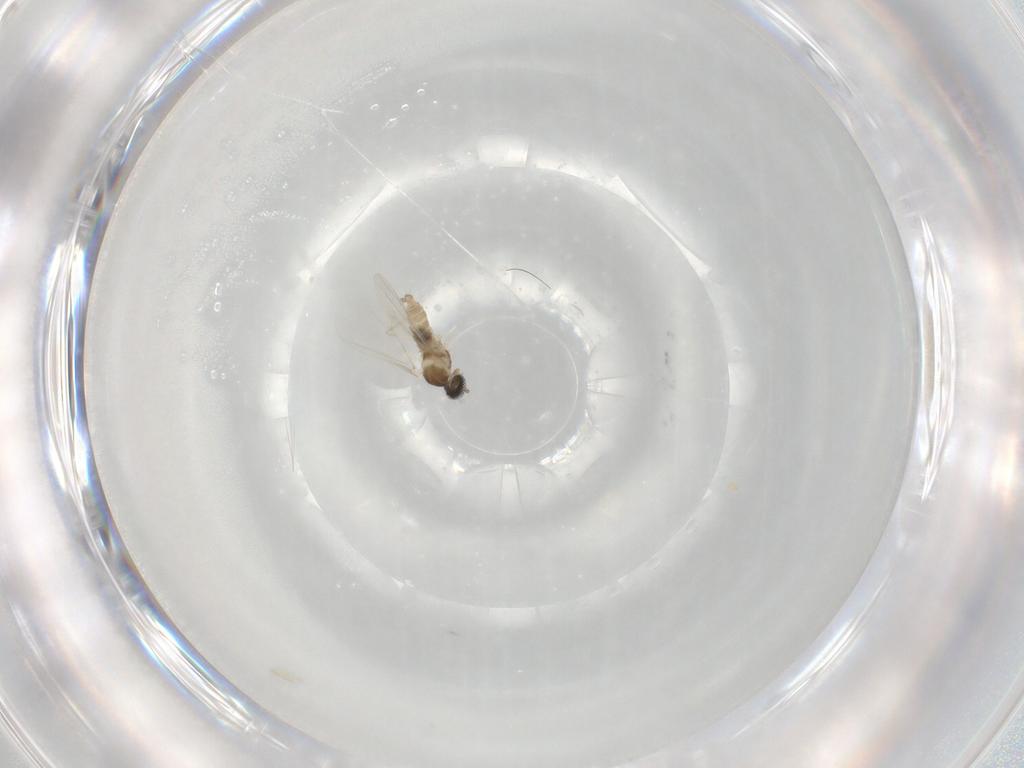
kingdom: Animalia
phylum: Arthropoda
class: Insecta
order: Diptera
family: Cecidomyiidae
